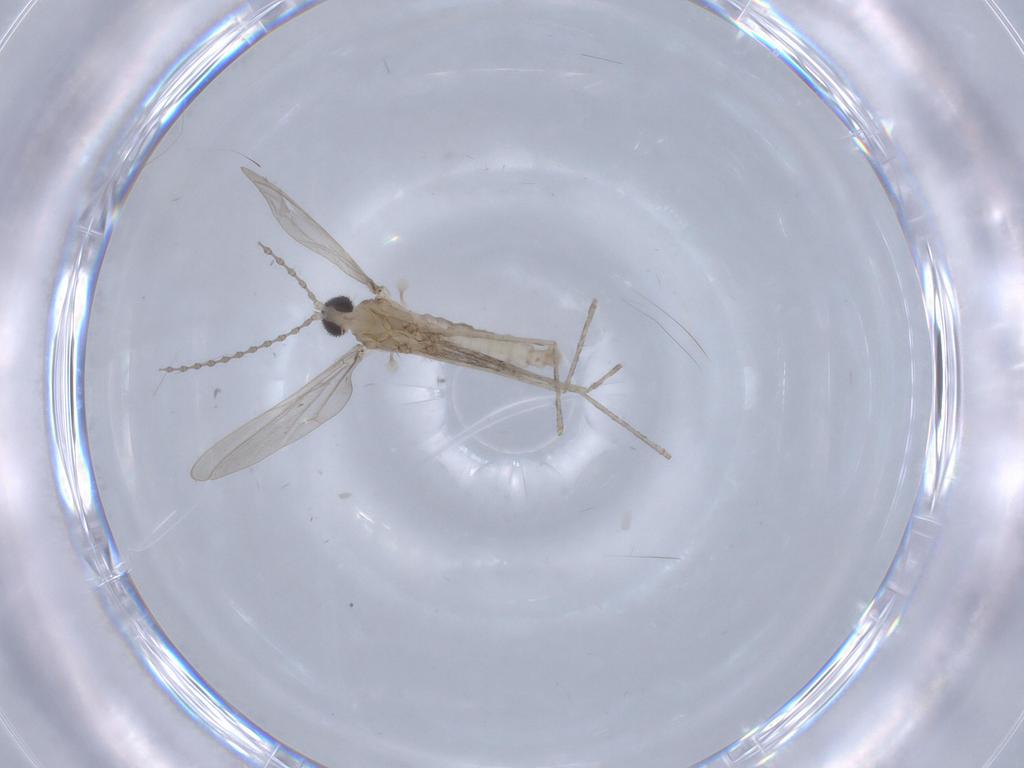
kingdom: Animalia
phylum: Arthropoda
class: Insecta
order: Diptera
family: Cecidomyiidae
